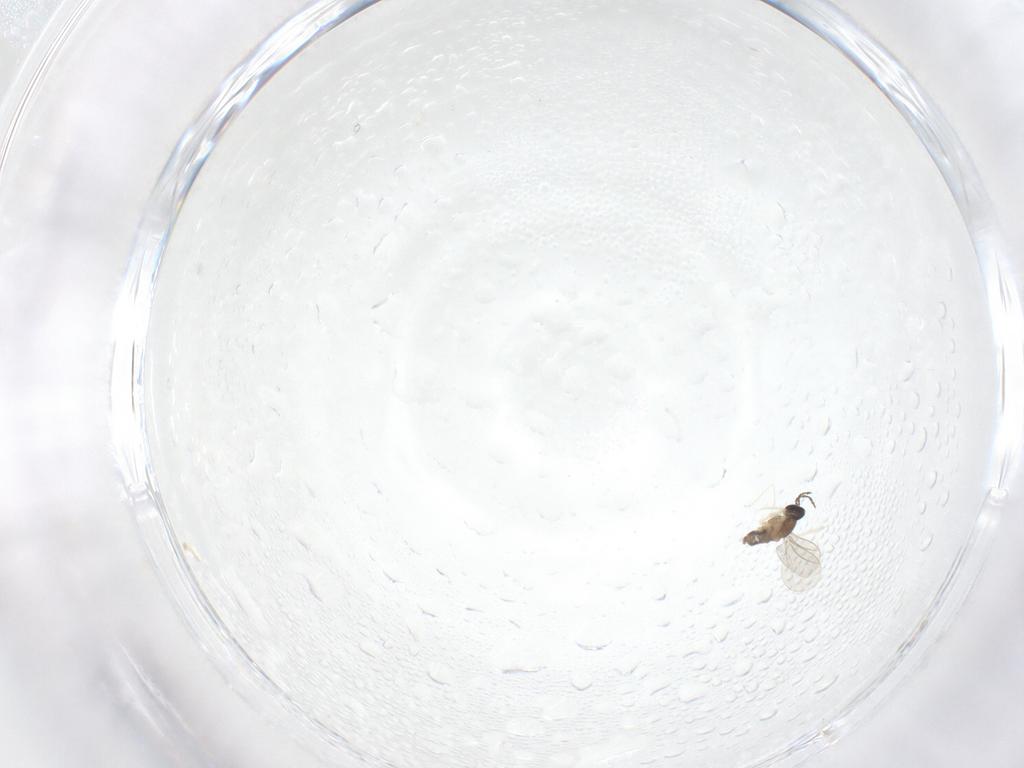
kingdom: Animalia
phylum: Arthropoda
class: Insecta
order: Diptera
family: Cecidomyiidae
